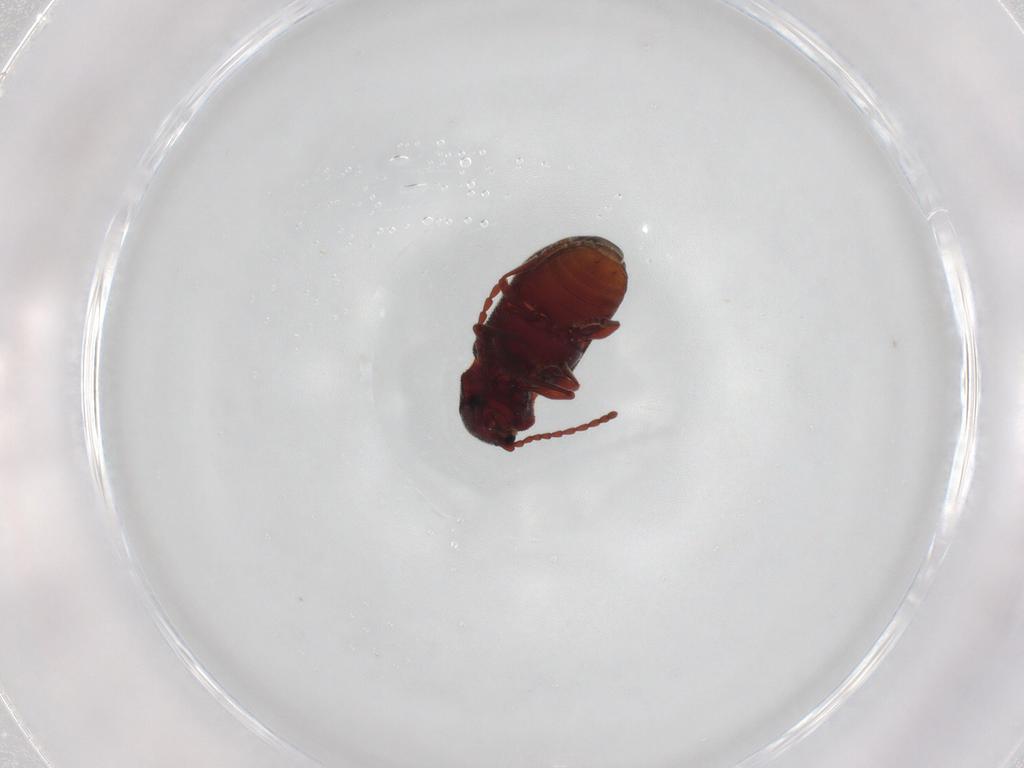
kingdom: Animalia
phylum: Arthropoda
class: Insecta
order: Coleoptera
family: Ptinidae
